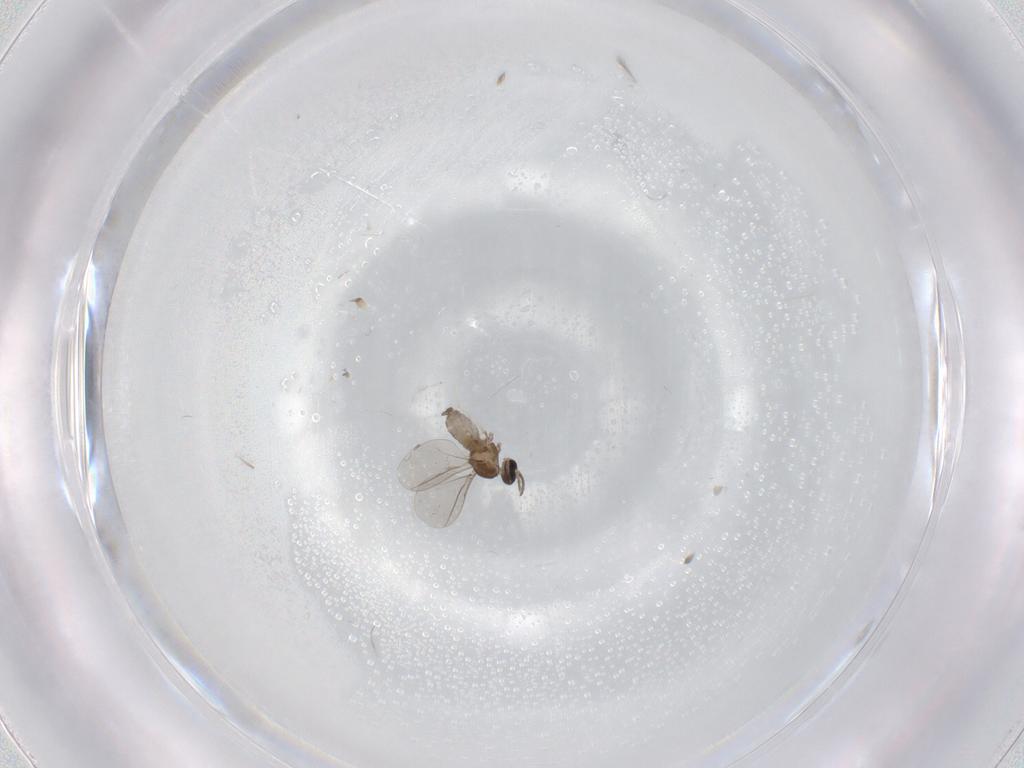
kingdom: Animalia
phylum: Arthropoda
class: Insecta
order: Diptera
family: Cecidomyiidae
